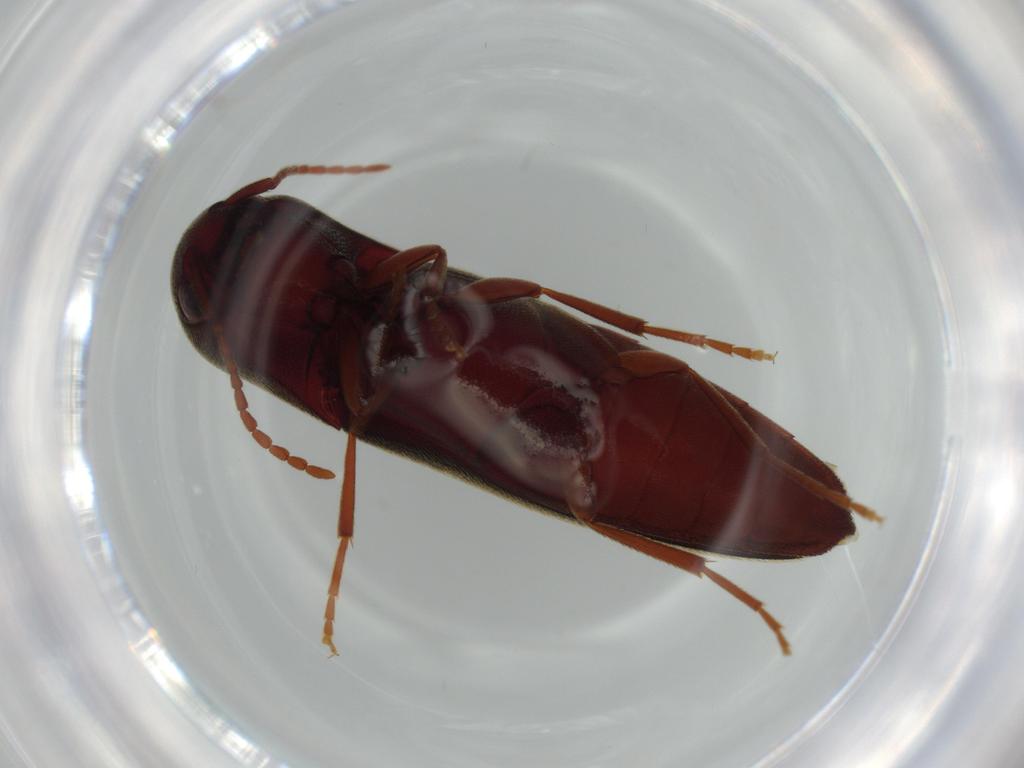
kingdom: Animalia
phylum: Arthropoda
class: Insecta
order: Coleoptera
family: Eucnemidae
